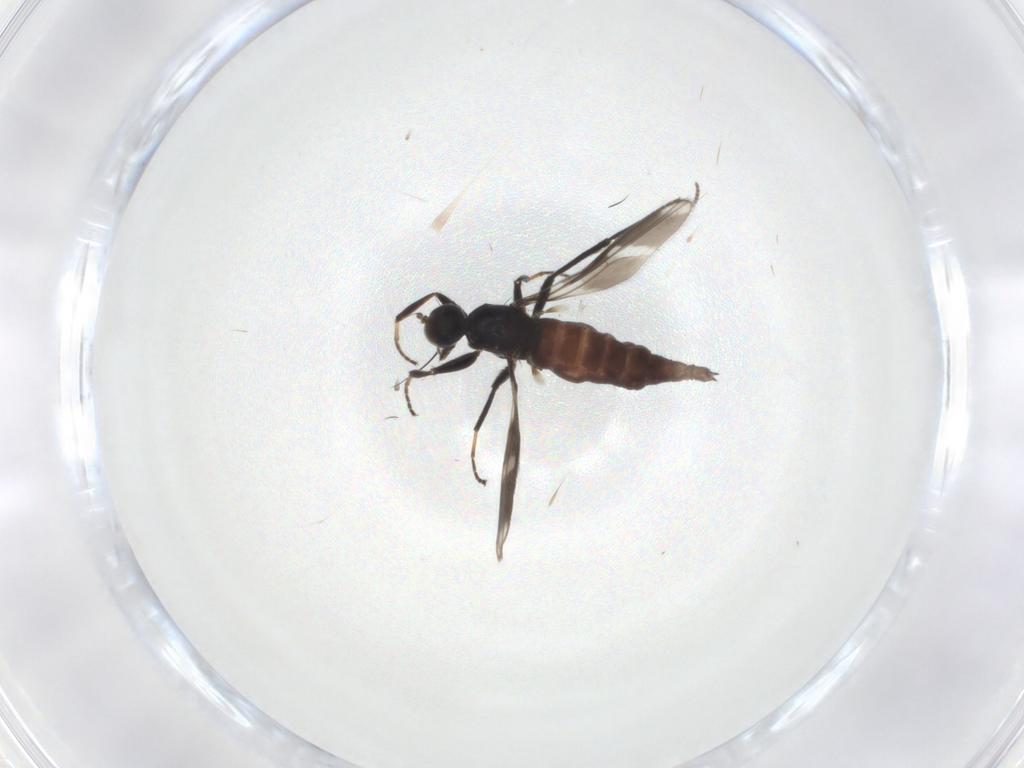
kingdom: Animalia
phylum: Arthropoda
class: Insecta
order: Diptera
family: Hybotidae
